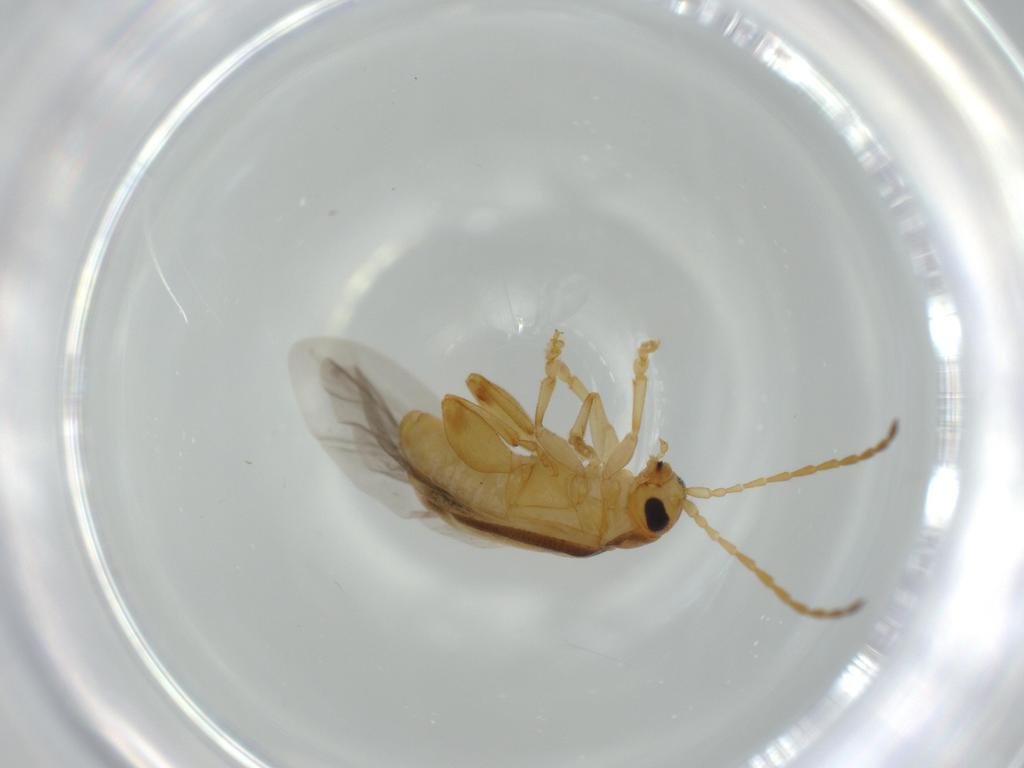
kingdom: Animalia
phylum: Arthropoda
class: Insecta
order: Coleoptera
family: Chrysomelidae
